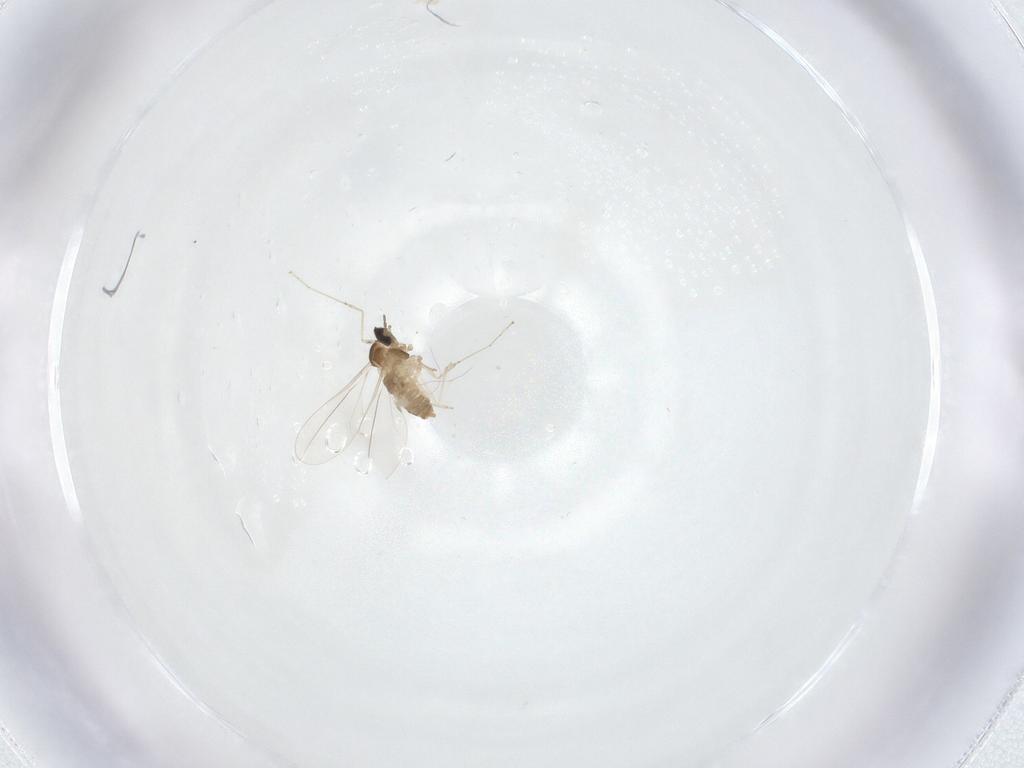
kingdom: Animalia
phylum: Arthropoda
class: Insecta
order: Diptera
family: Cecidomyiidae
